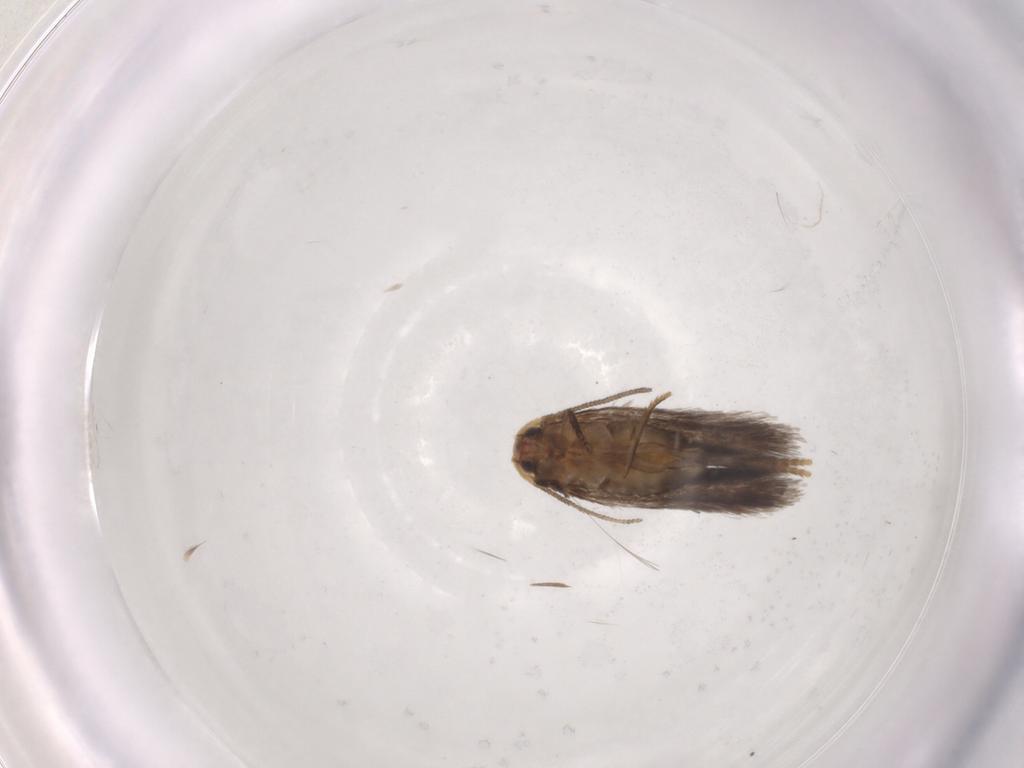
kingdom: Animalia
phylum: Arthropoda
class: Insecta
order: Lepidoptera
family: Nepticulidae
